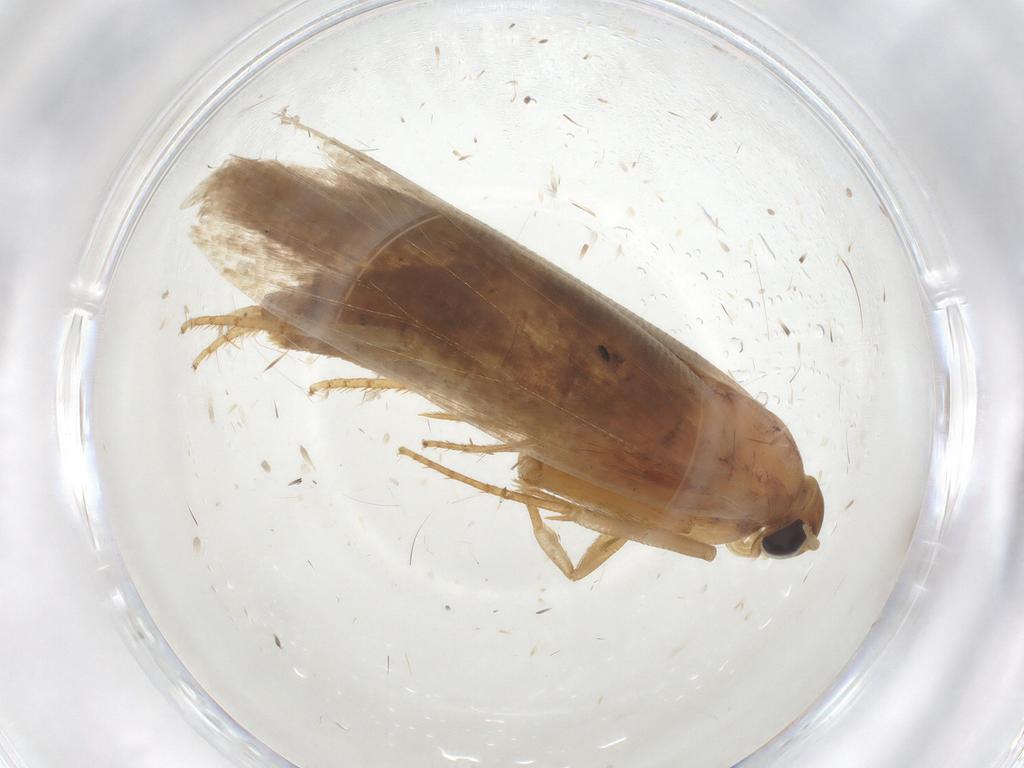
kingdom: Animalia
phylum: Arthropoda
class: Insecta
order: Lepidoptera
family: Gelechiidae
